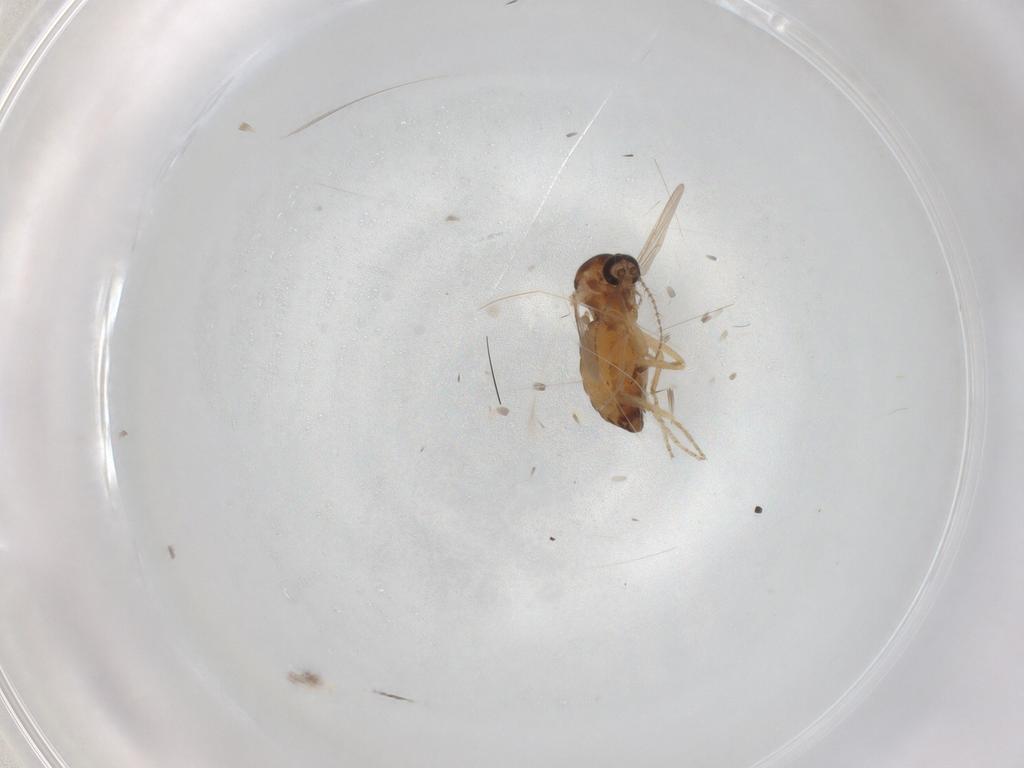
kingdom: Animalia
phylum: Arthropoda
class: Insecta
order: Diptera
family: Ceratopogonidae
